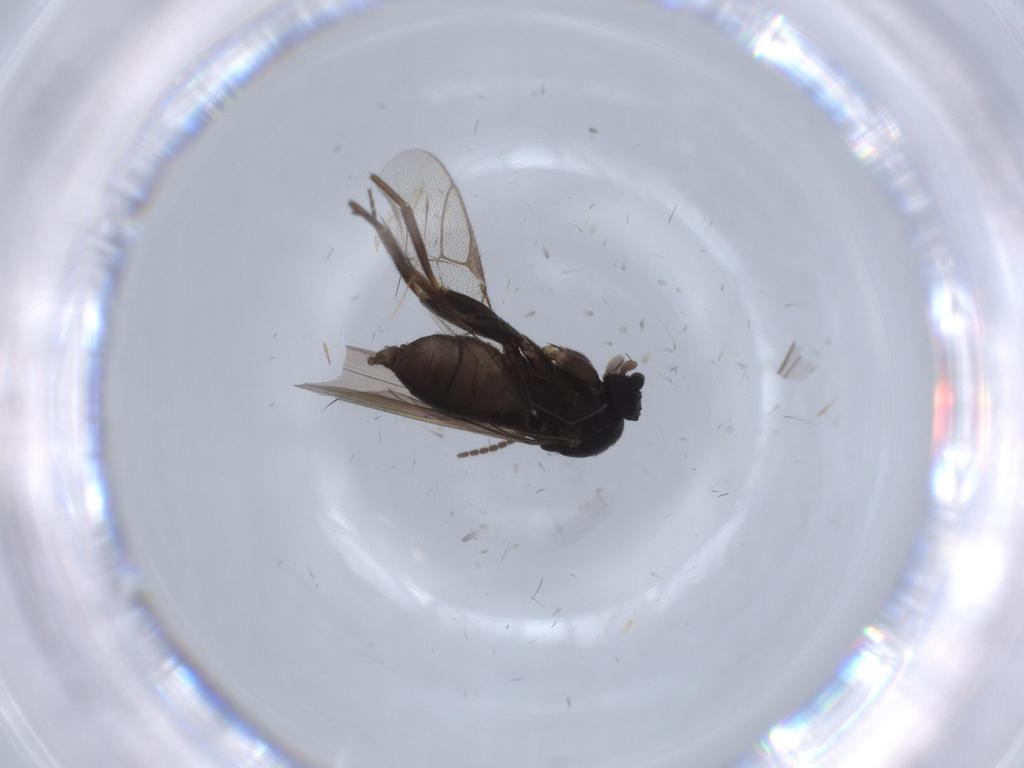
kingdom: Animalia
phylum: Arthropoda
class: Insecta
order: Diptera
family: Phoridae
